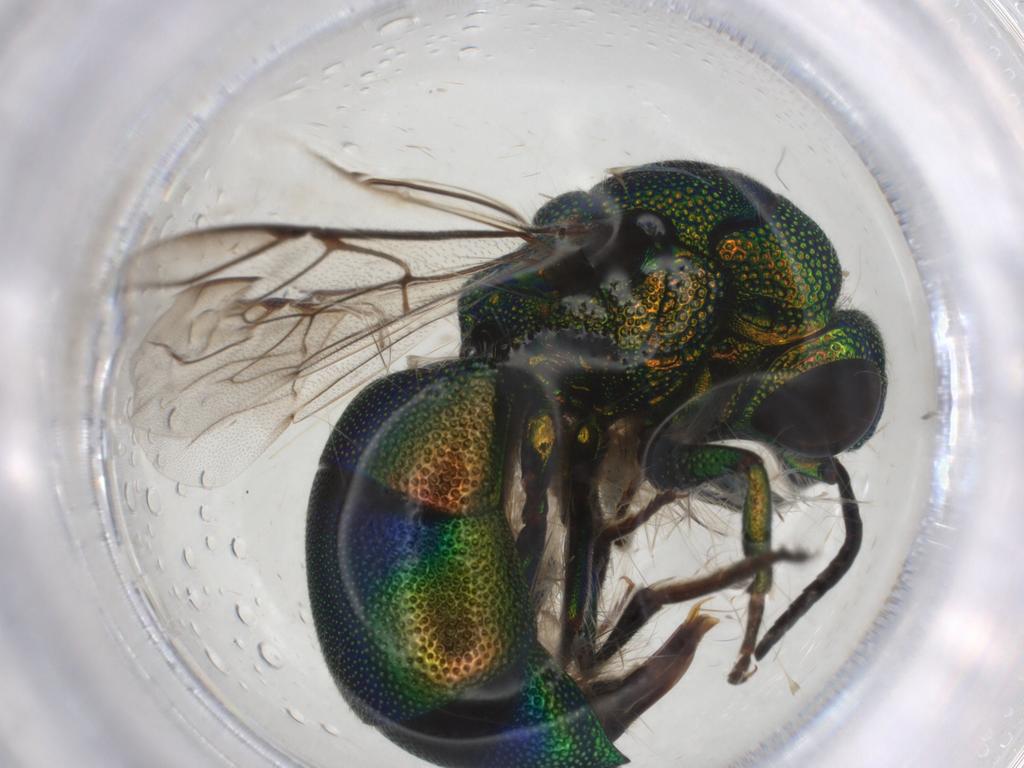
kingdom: Animalia
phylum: Arthropoda
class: Insecta
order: Hymenoptera
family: Chrysididae
